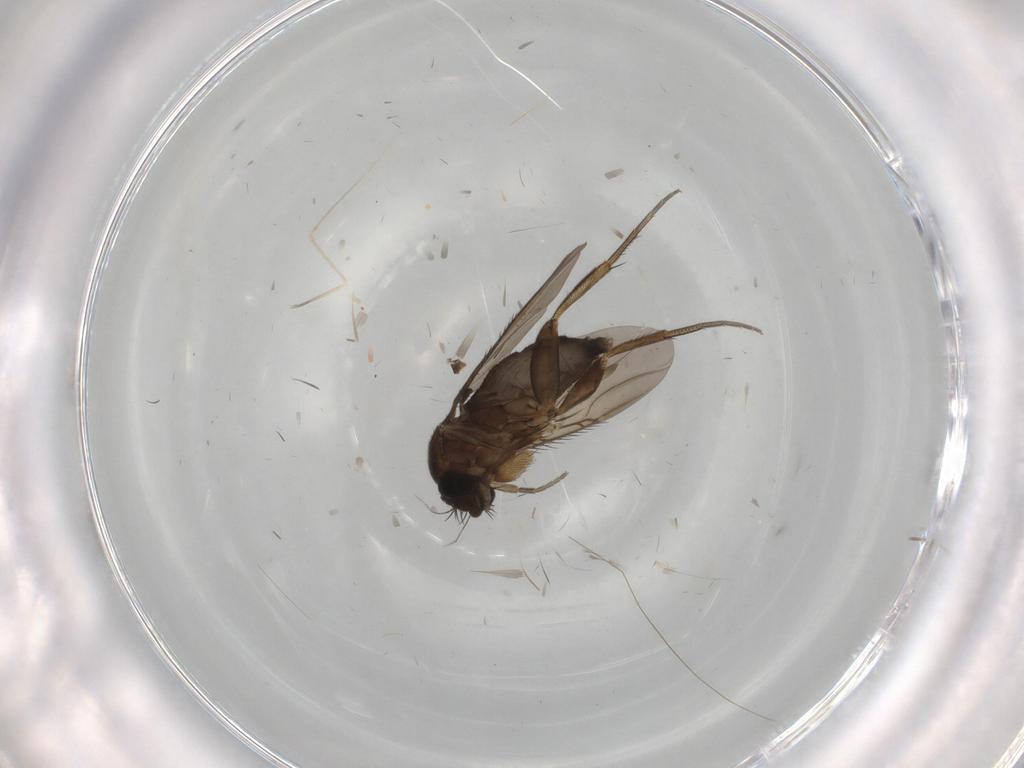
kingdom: Animalia
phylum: Arthropoda
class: Insecta
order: Diptera
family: Sciaridae
